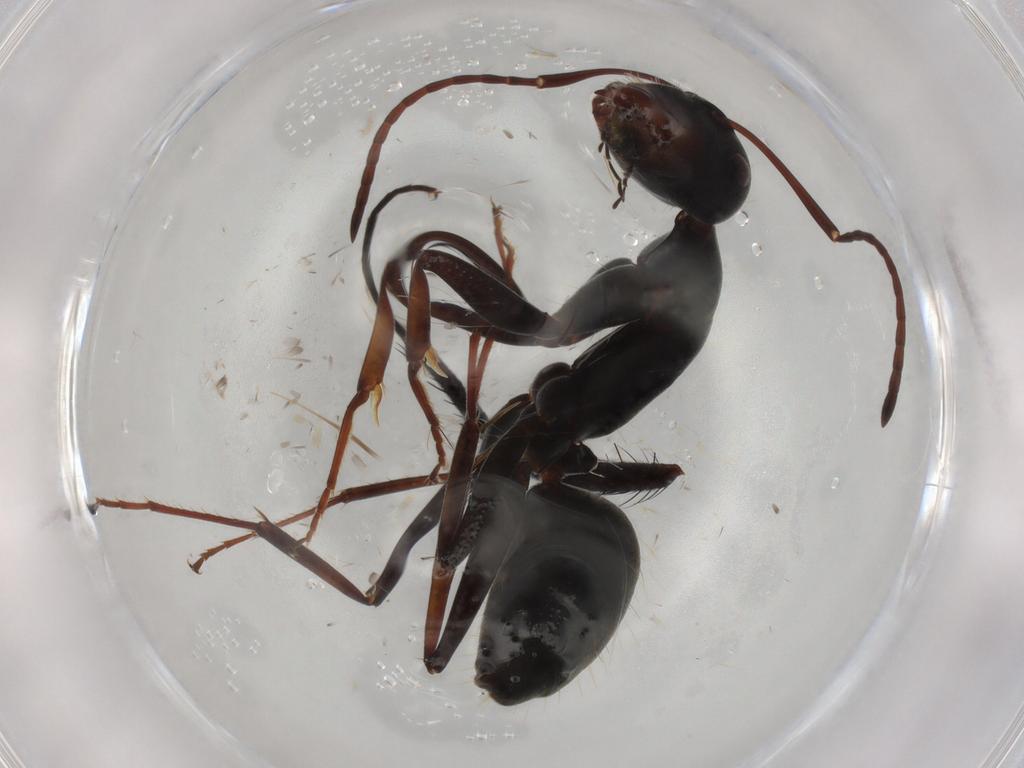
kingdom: Animalia
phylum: Arthropoda
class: Insecta
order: Hymenoptera
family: Formicidae
